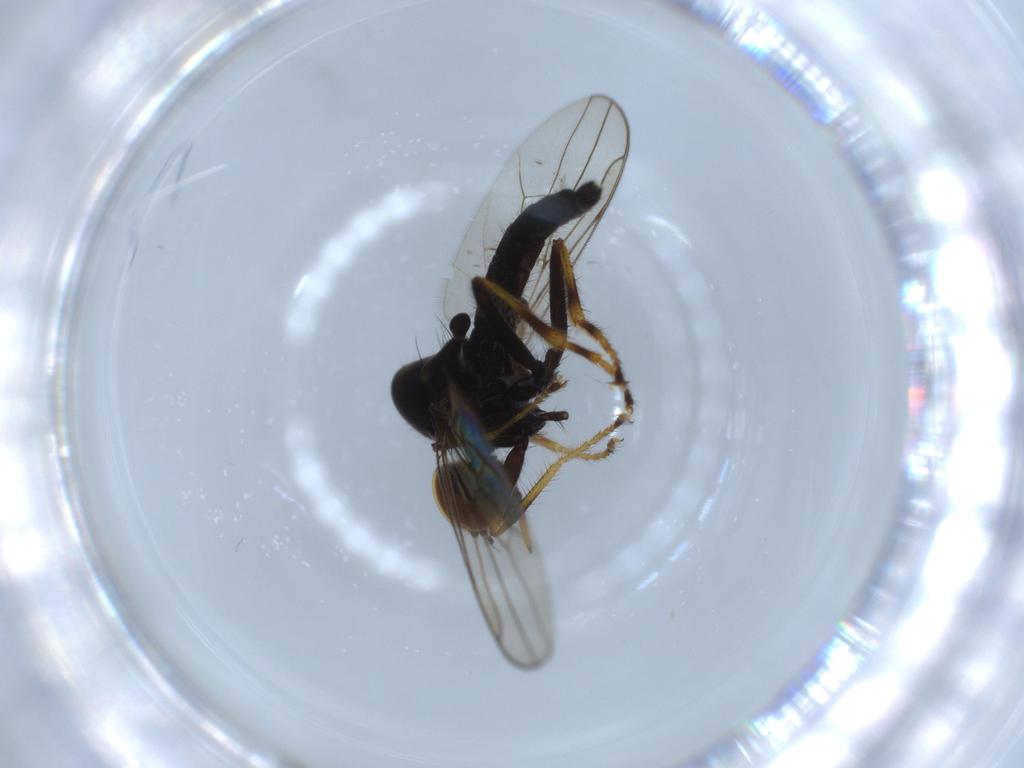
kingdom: Animalia
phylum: Arthropoda
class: Insecta
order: Diptera
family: Hybotidae
